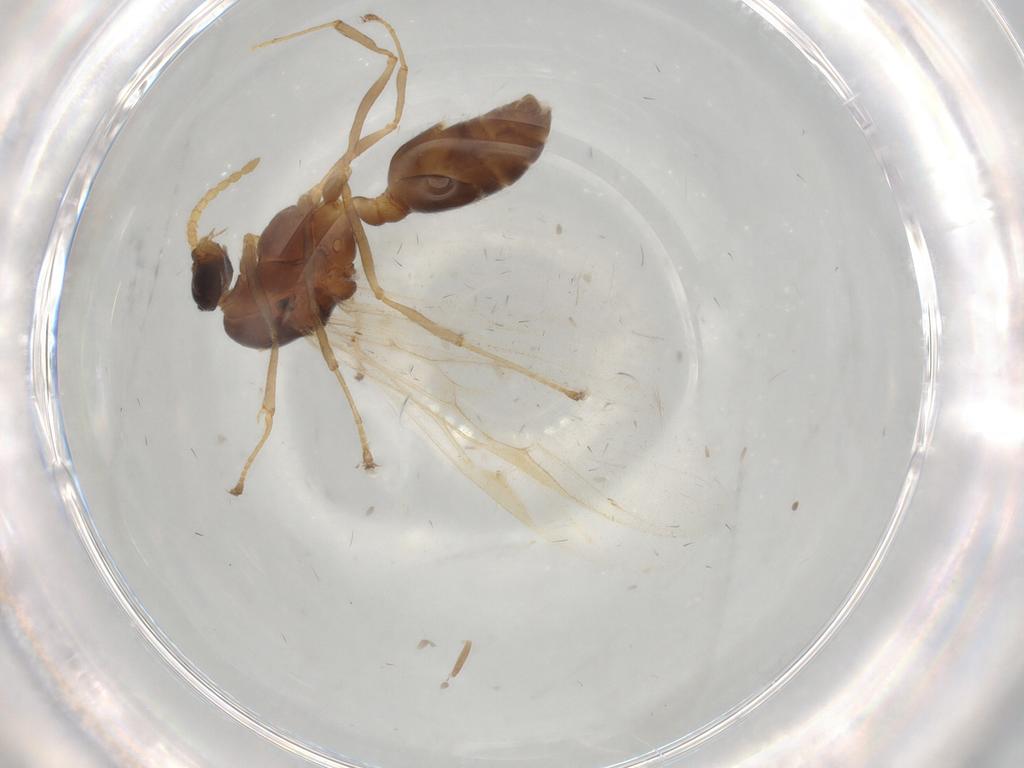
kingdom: Animalia
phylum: Arthropoda
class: Insecta
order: Hymenoptera
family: Formicidae
